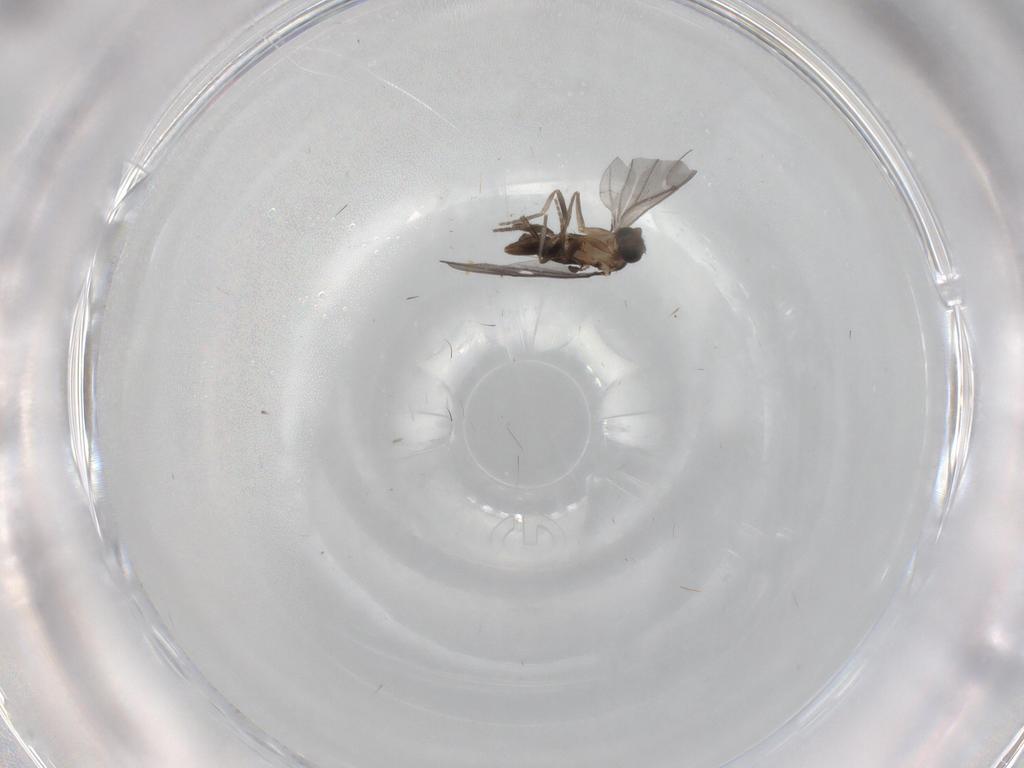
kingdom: Animalia
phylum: Arthropoda
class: Insecta
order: Diptera
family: Phoridae
